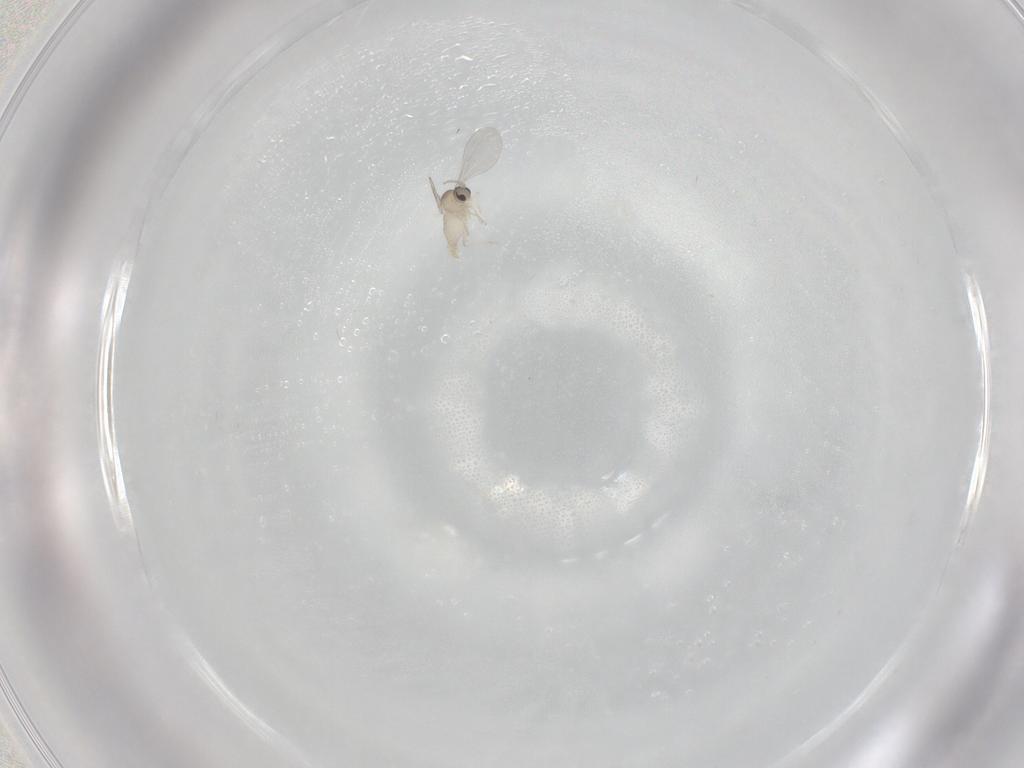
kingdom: Animalia
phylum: Arthropoda
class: Insecta
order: Diptera
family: Cecidomyiidae
